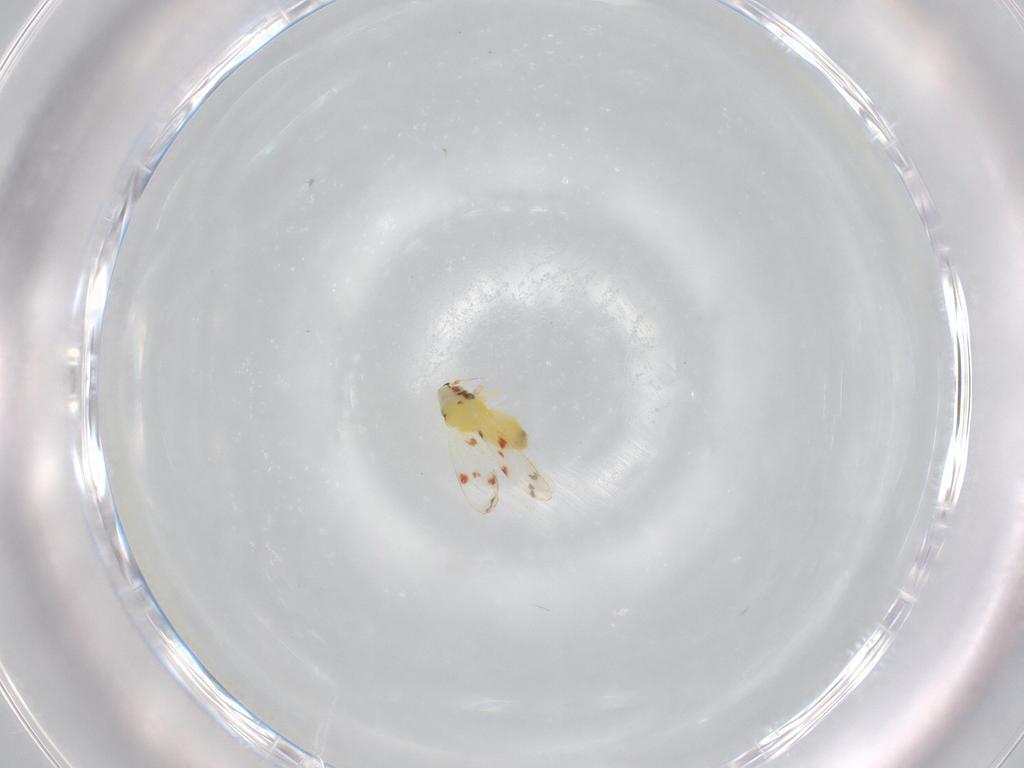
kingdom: Animalia
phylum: Arthropoda
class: Insecta
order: Hemiptera
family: Aleyrodidae
